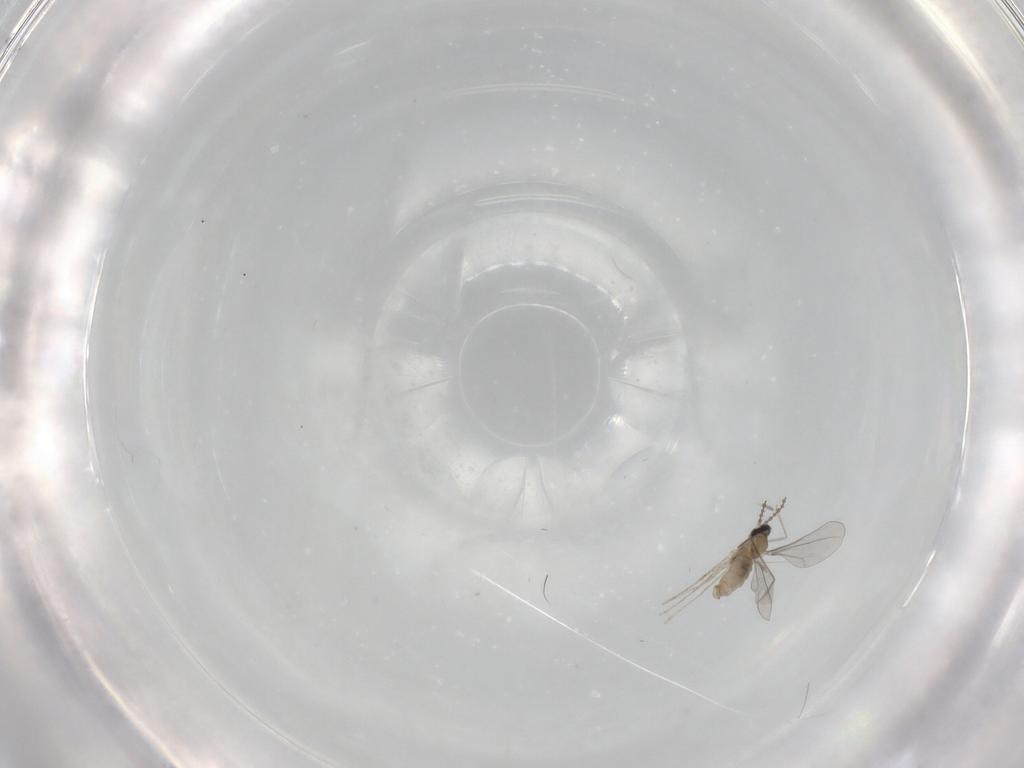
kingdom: Animalia
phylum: Arthropoda
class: Insecta
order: Diptera
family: Cecidomyiidae
